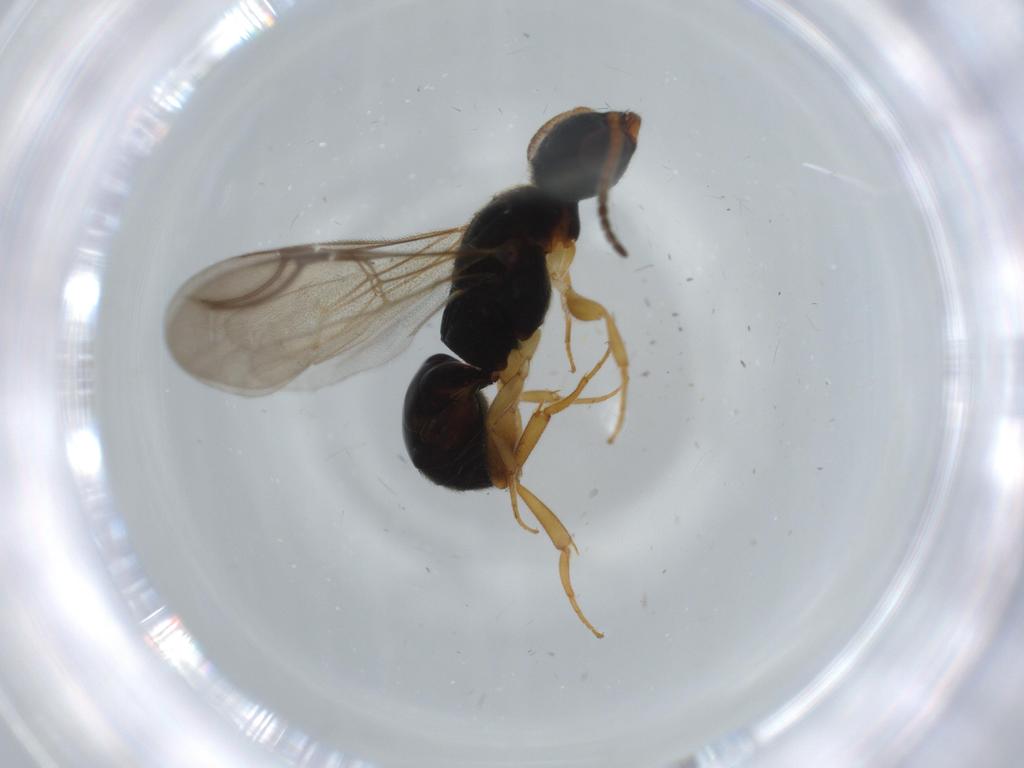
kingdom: Animalia
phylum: Arthropoda
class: Insecta
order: Hymenoptera
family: Bethylidae
